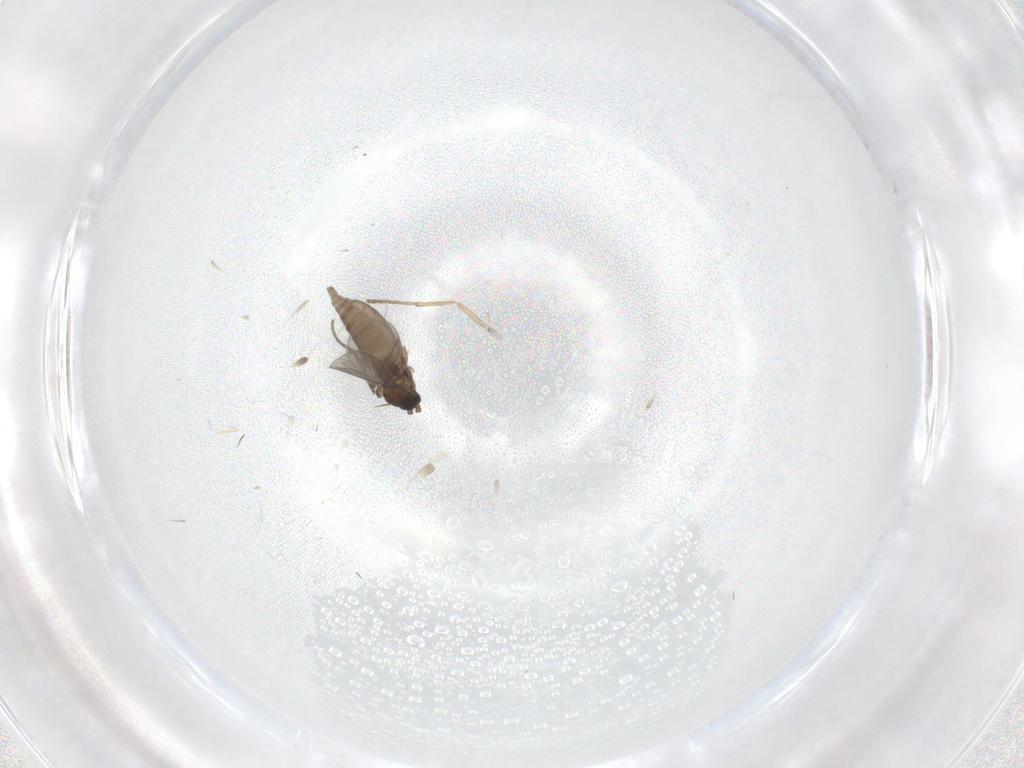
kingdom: Animalia
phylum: Arthropoda
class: Insecta
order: Diptera
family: Sciaridae
